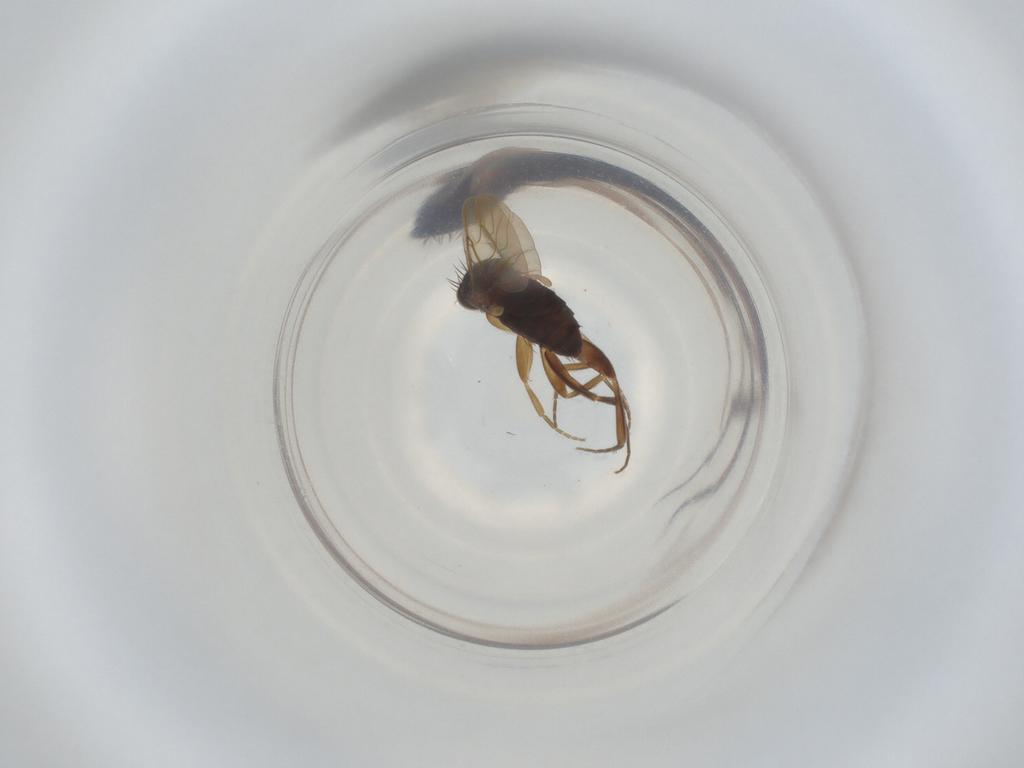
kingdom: Animalia
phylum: Arthropoda
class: Insecta
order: Diptera
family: Phoridae
